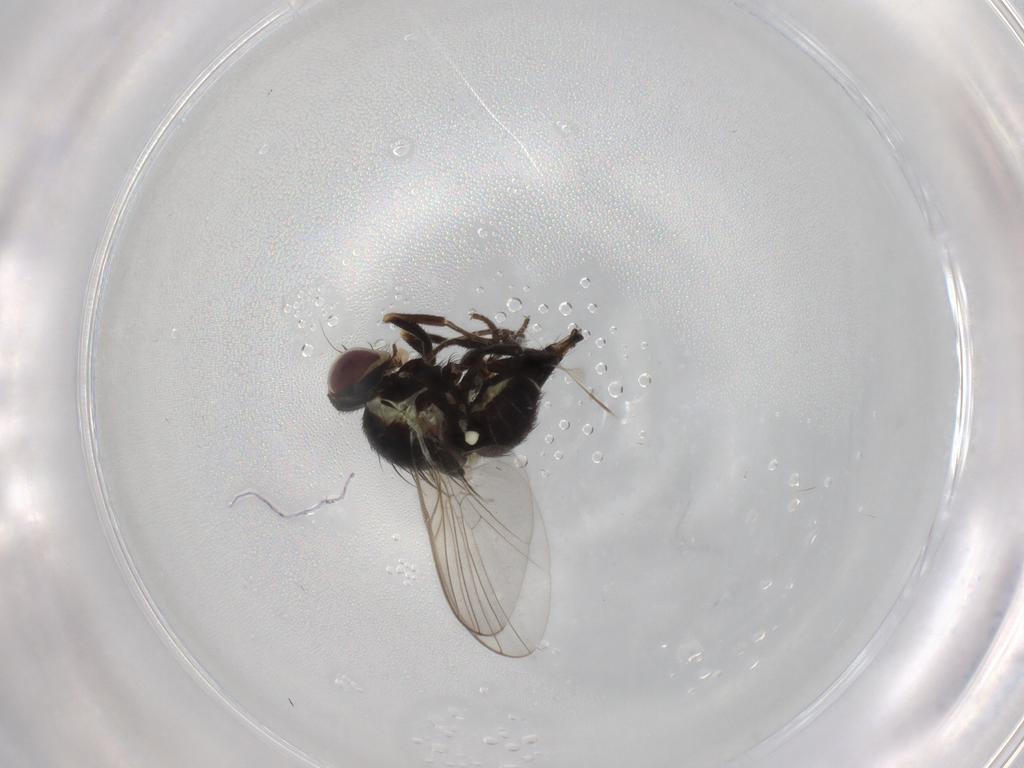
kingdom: Animalia
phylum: Arthropoda
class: Insecta
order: Diptera
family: Agromyzidae
